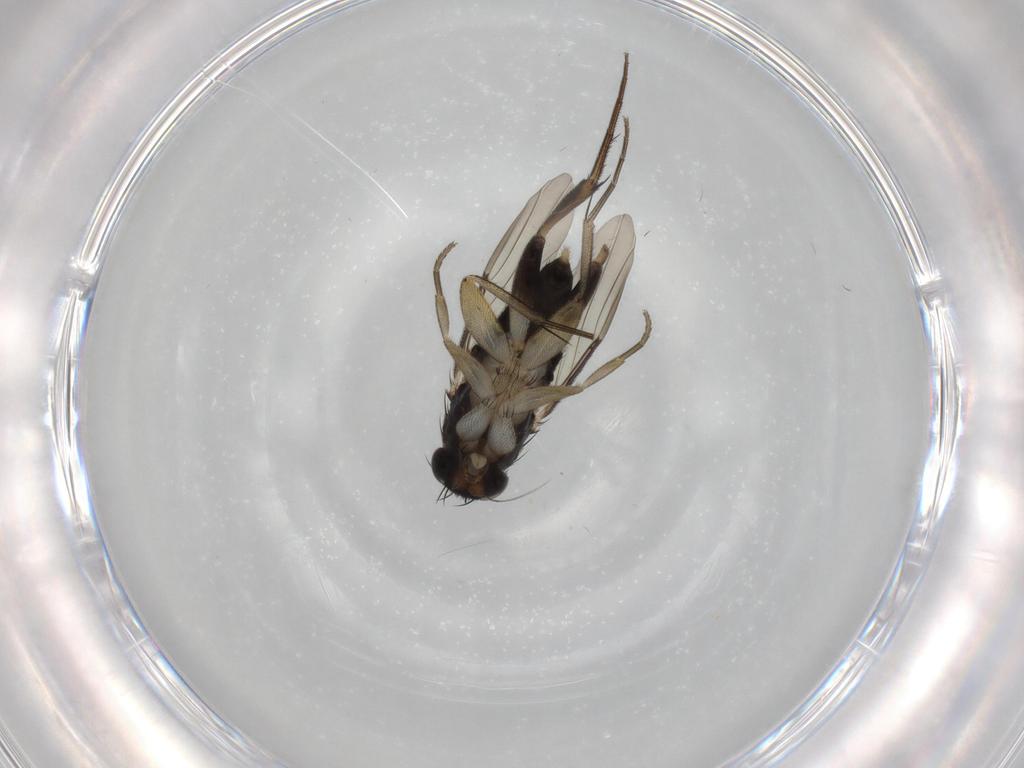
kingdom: Animalia
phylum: Arthropoda
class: Insecta
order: Diptera
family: Phoridae
